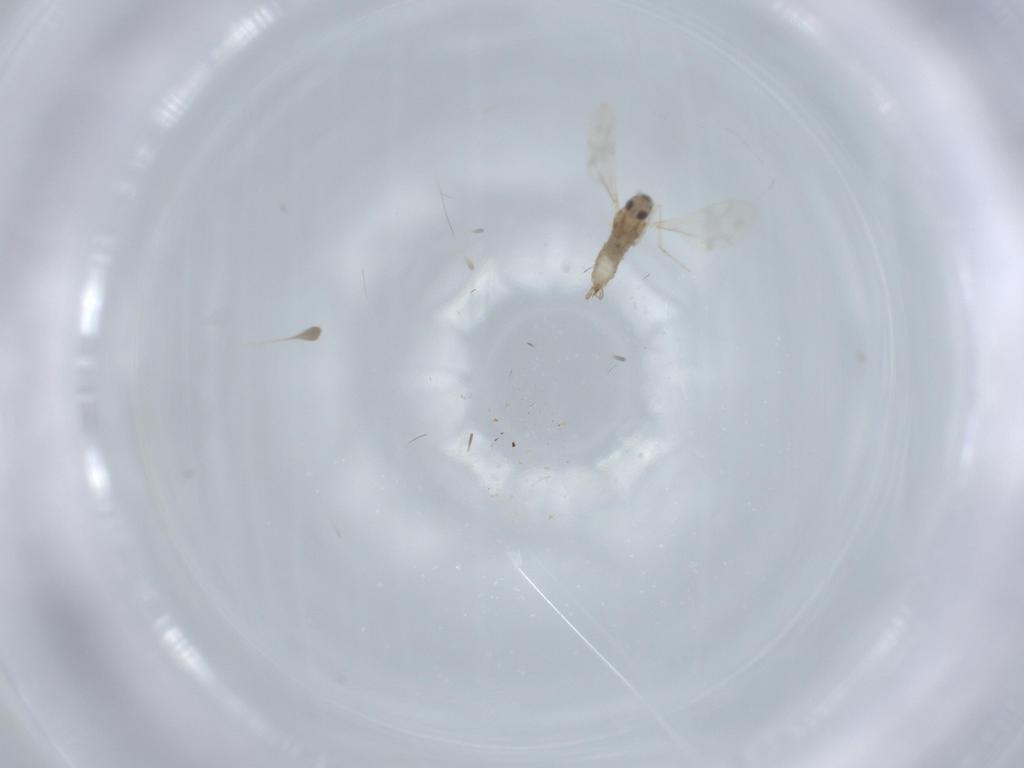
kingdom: Animalia
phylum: Arthropoda
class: Insecta
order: Diptera
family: Cecidomyiidae
